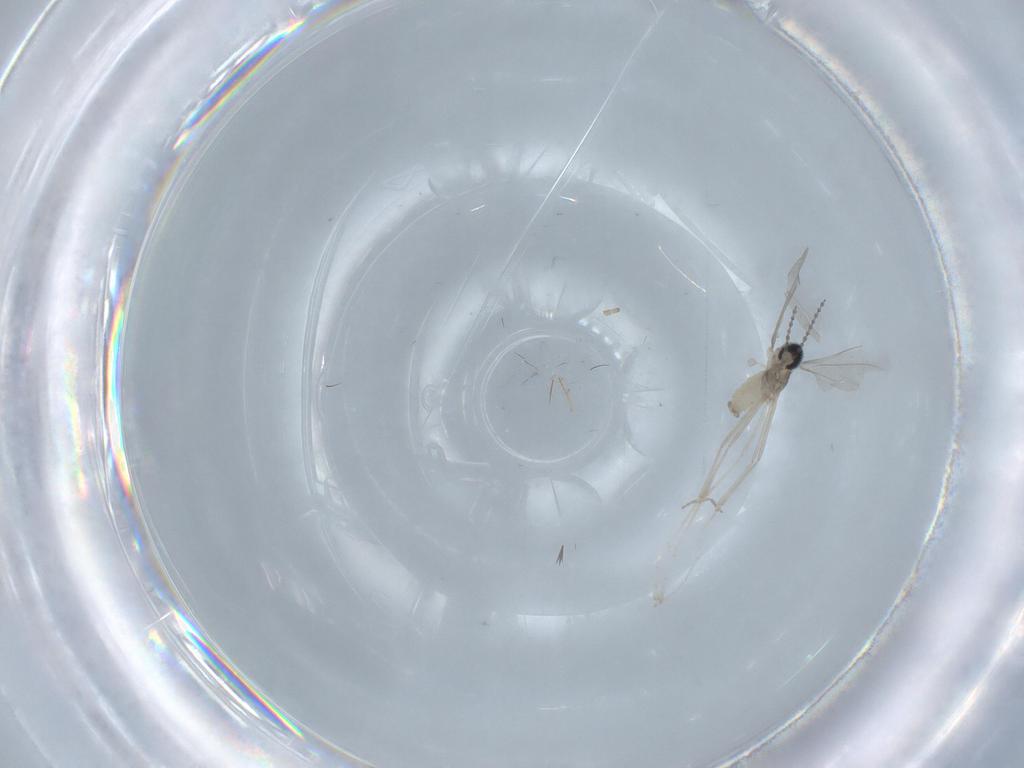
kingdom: Animalia
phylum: Arthropoda
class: Insecta
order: Diptera
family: Cecidomyiidae
